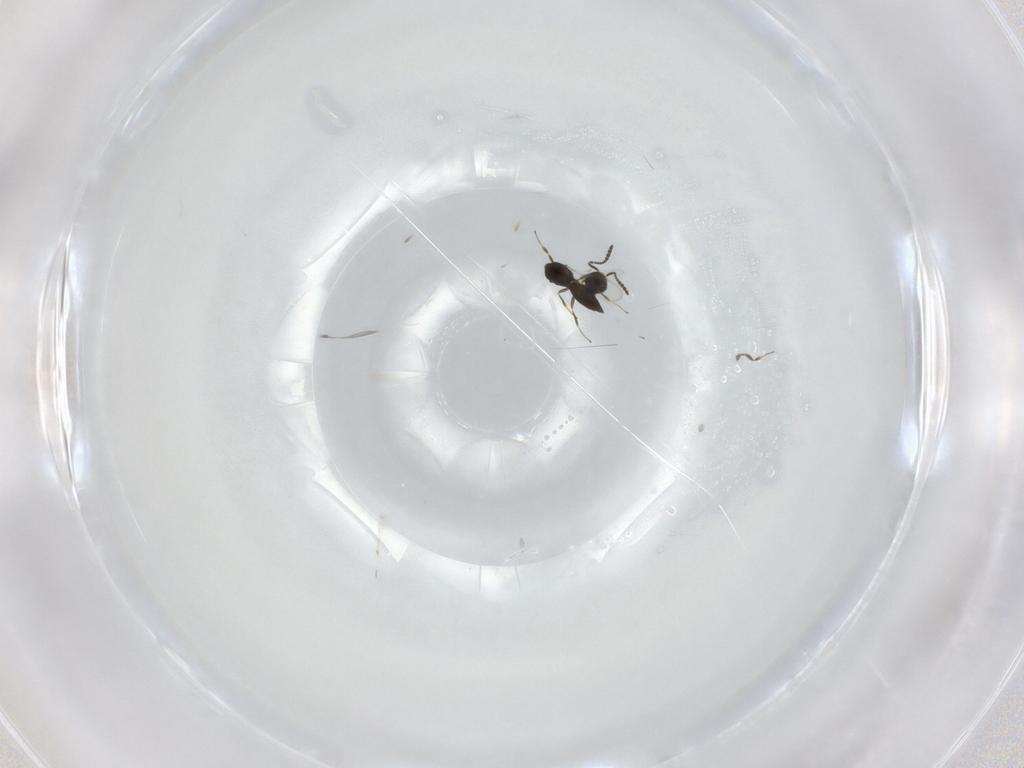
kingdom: Animalia
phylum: Arthropoda
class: Insecta
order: Hymenoptera
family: Scelionidae
